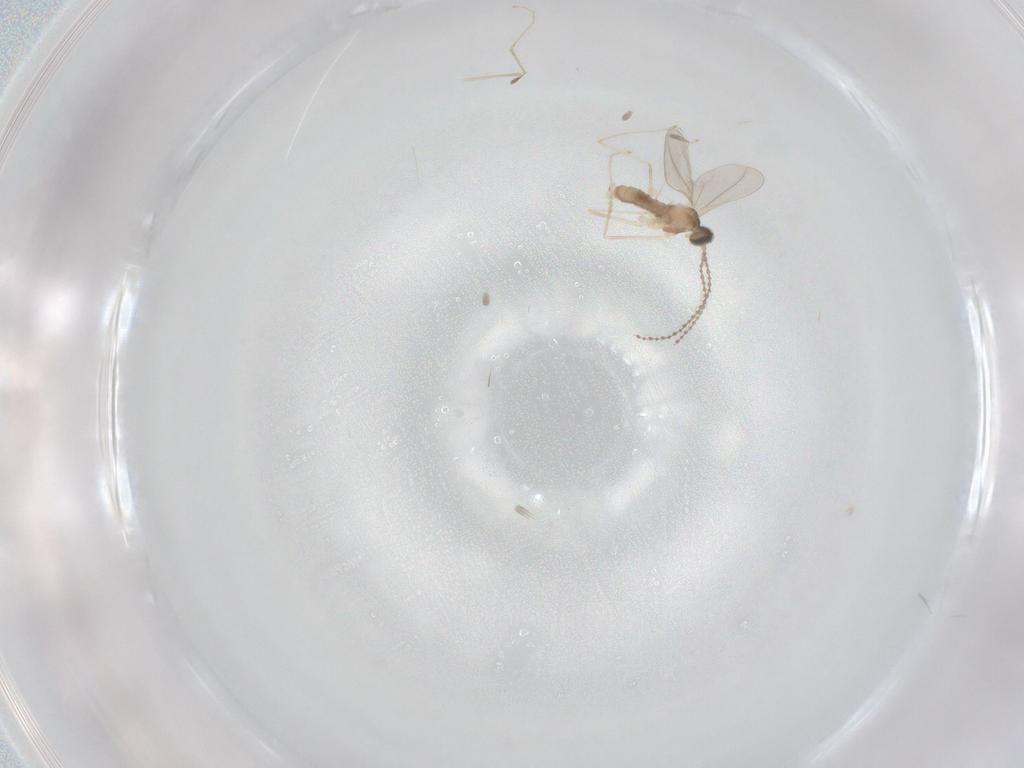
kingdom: Animalia
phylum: Arthropoda
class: Insecta
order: Diptera
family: Cecidomyiidae
